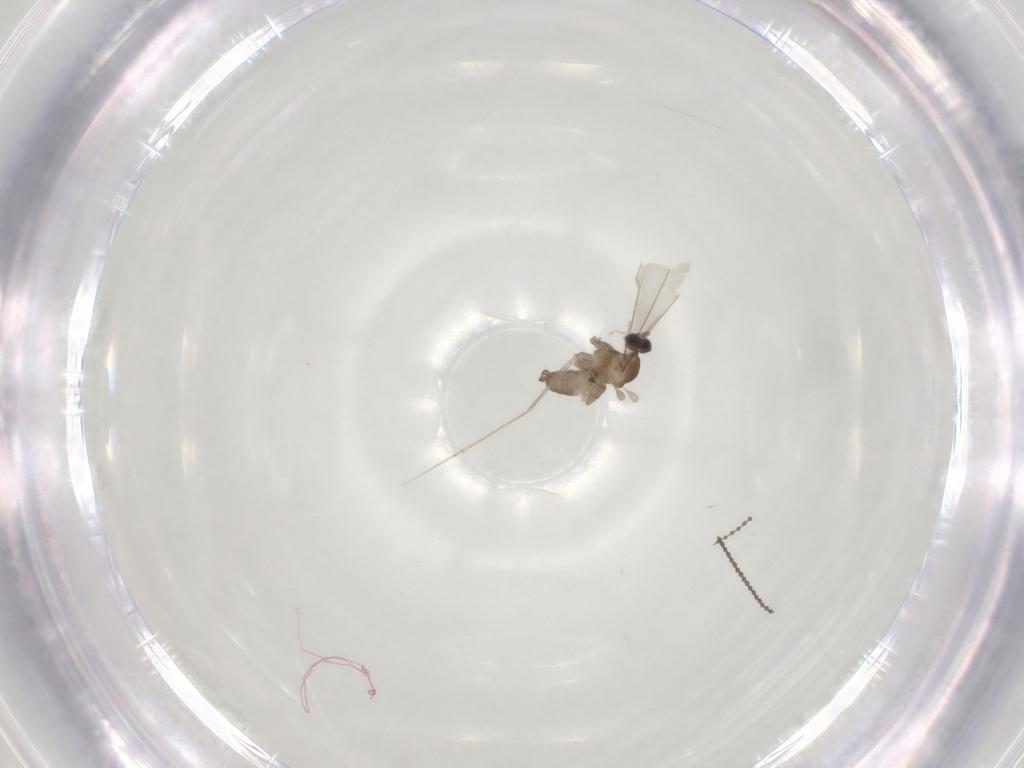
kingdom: Animalia
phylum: Arthropoda
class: Insecta
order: Diptera
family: Cecidomyiidae
